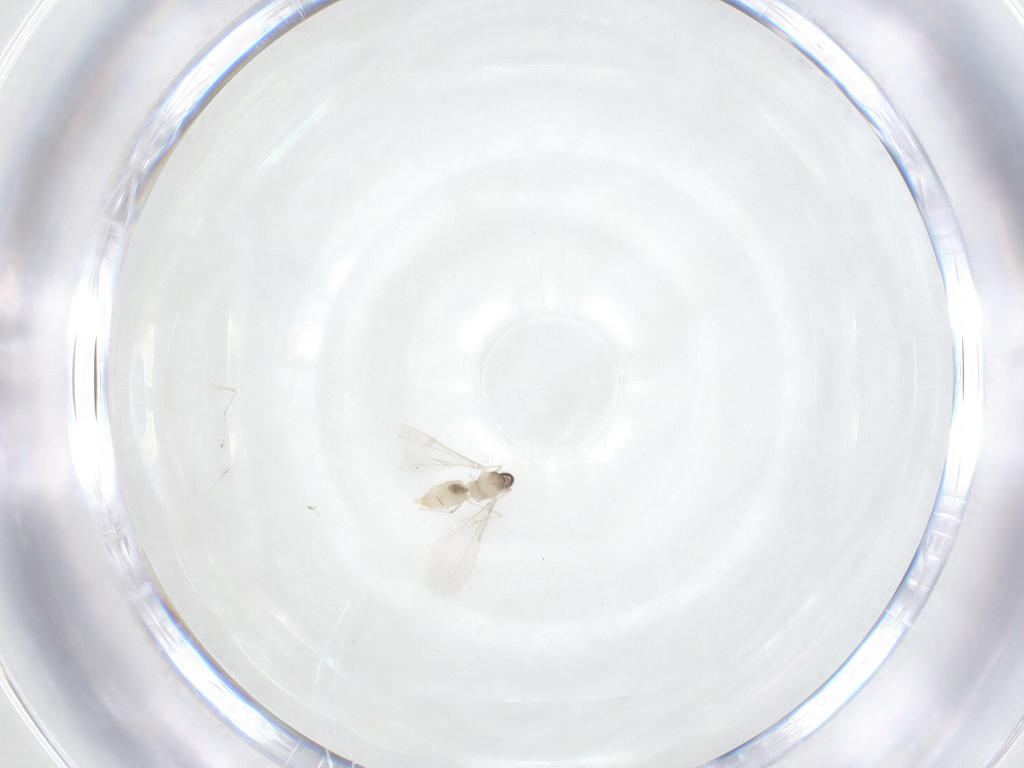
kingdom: Animalia
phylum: Arthropoda
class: Insecta
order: Diptera
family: Cecidomyiidae
